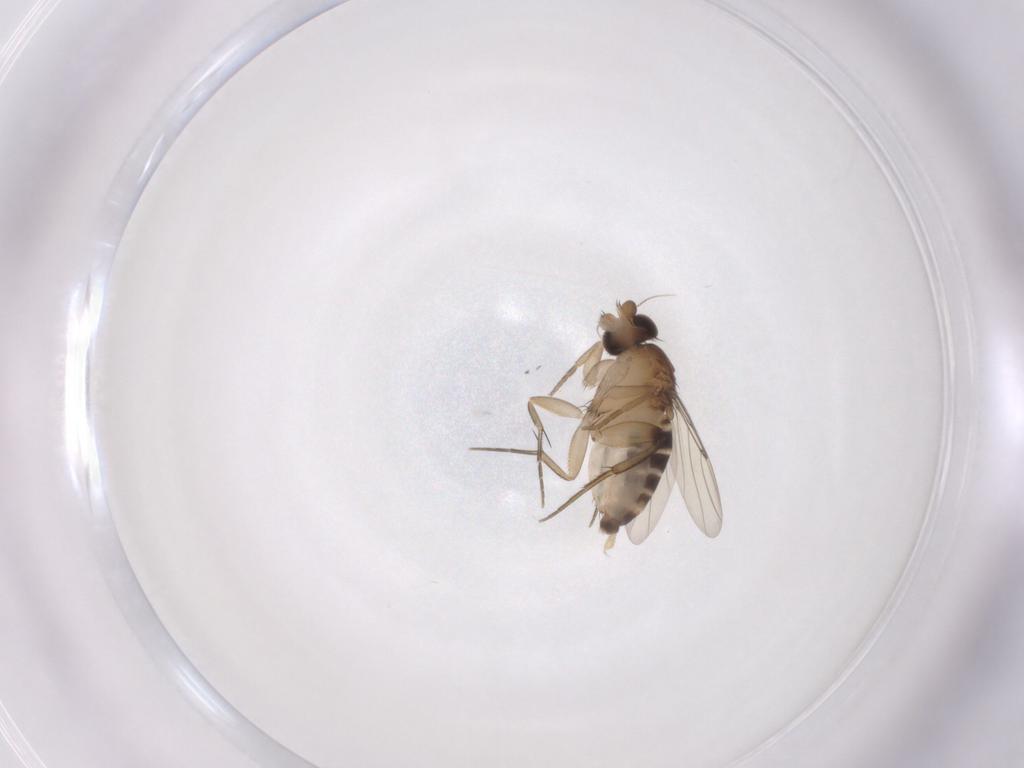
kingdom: Animalia
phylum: Arthropoda
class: Insecta
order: Diptera
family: Phoridae
